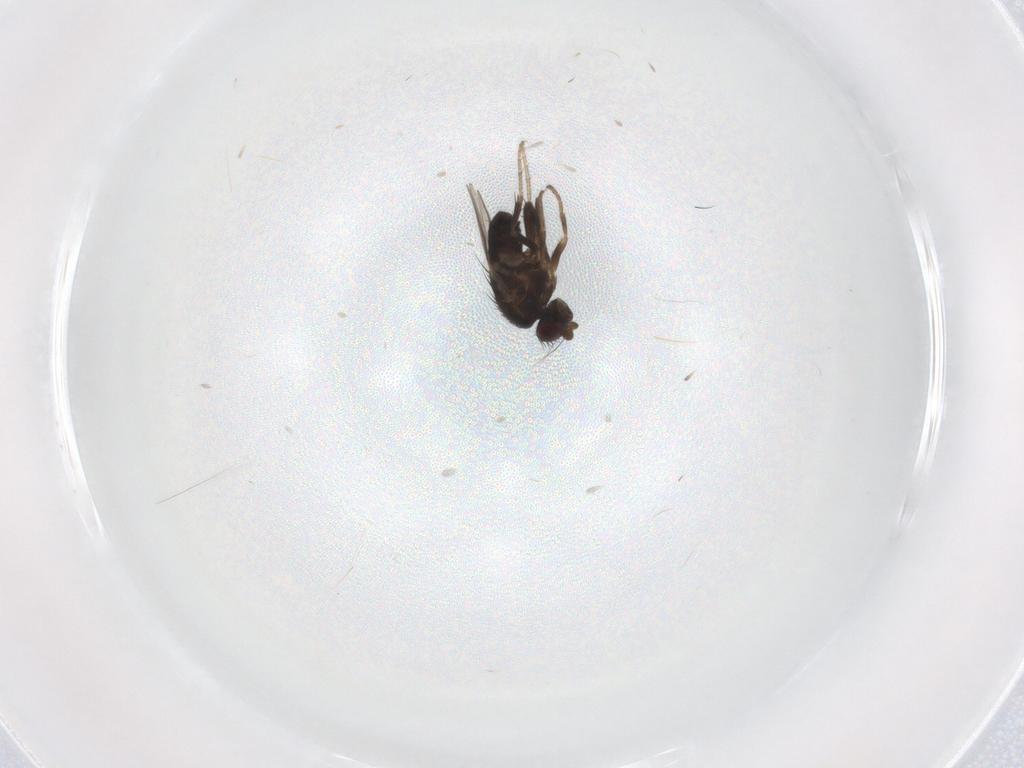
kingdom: Animalia
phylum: Arthropoda
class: Insecta
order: Diptera
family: Sphaeroceridae
